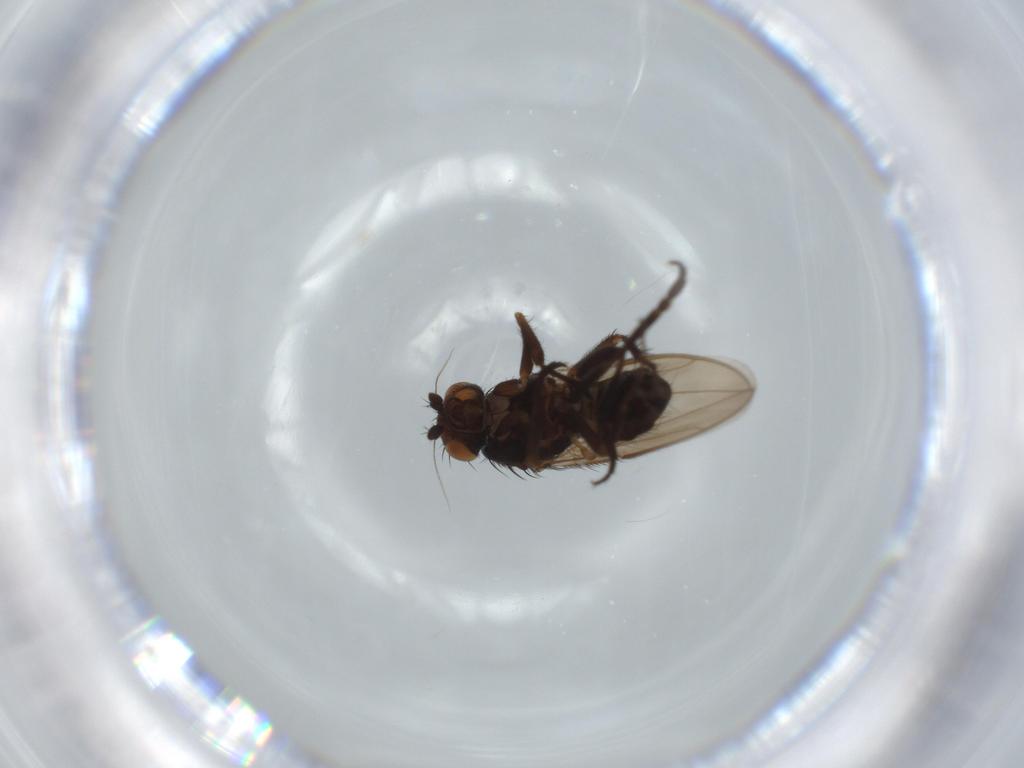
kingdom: Animalia
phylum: Arthropoda
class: Insecta
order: Diptera
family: Sphaeroceridae
